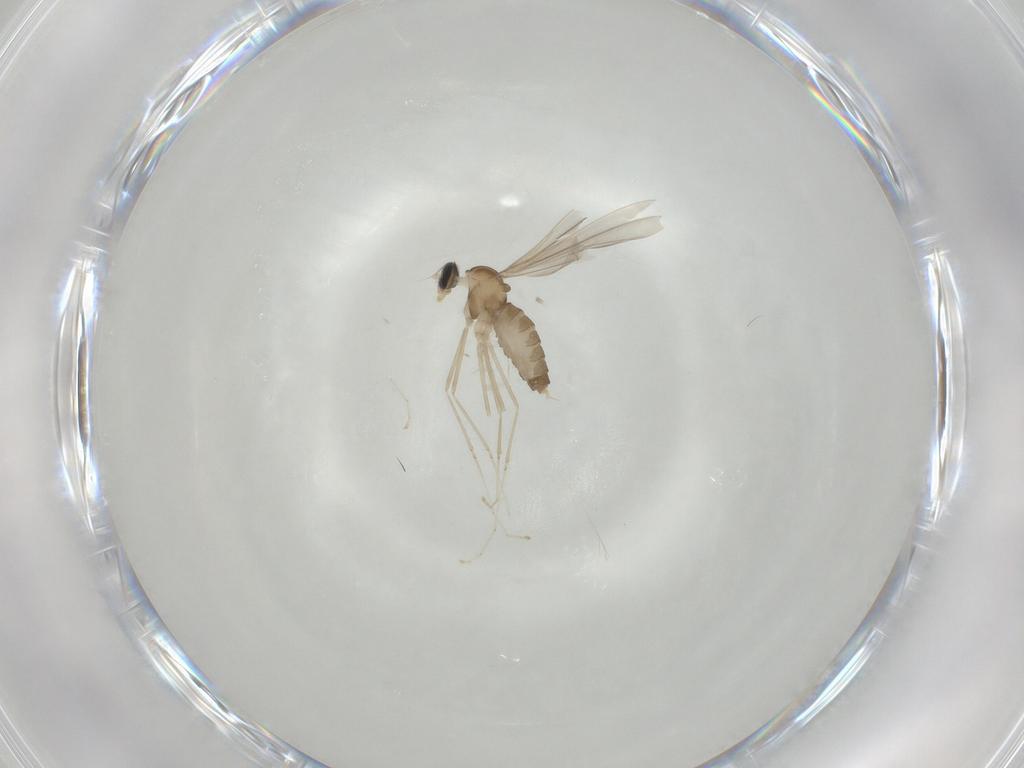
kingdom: Animalia
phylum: Arthropoda
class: Insecta
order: Diptera
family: Cecidomyiidae
